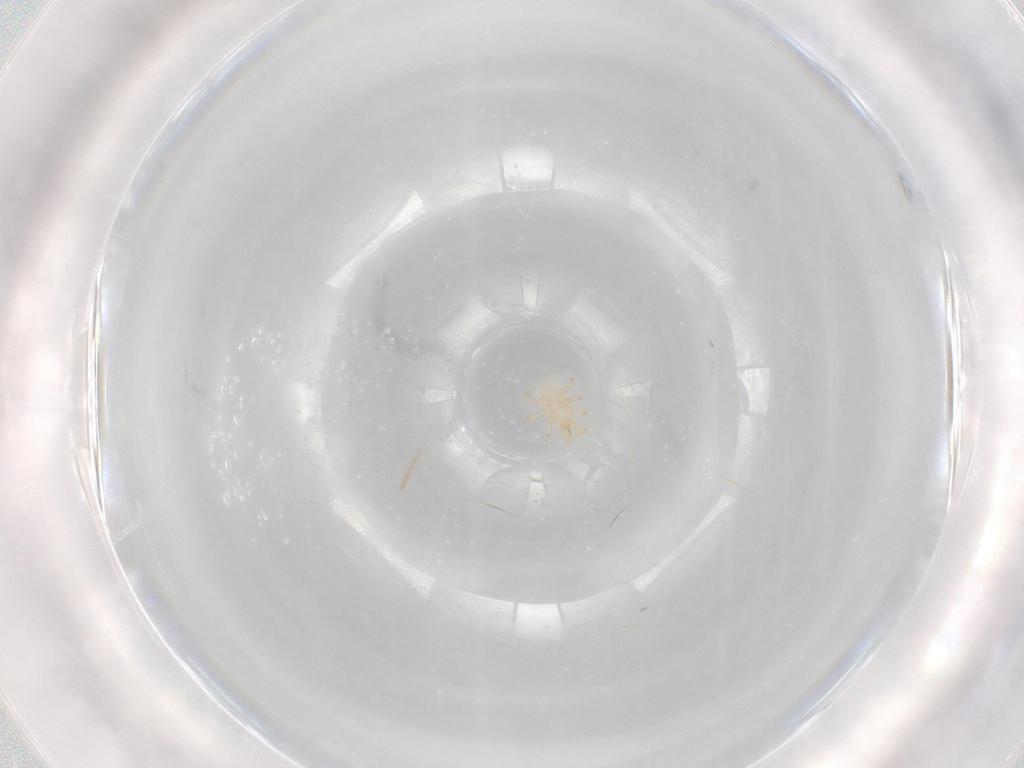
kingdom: Animalia
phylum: Arthropoda
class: Arachnida
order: Mesostigmata
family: Melicharidae
